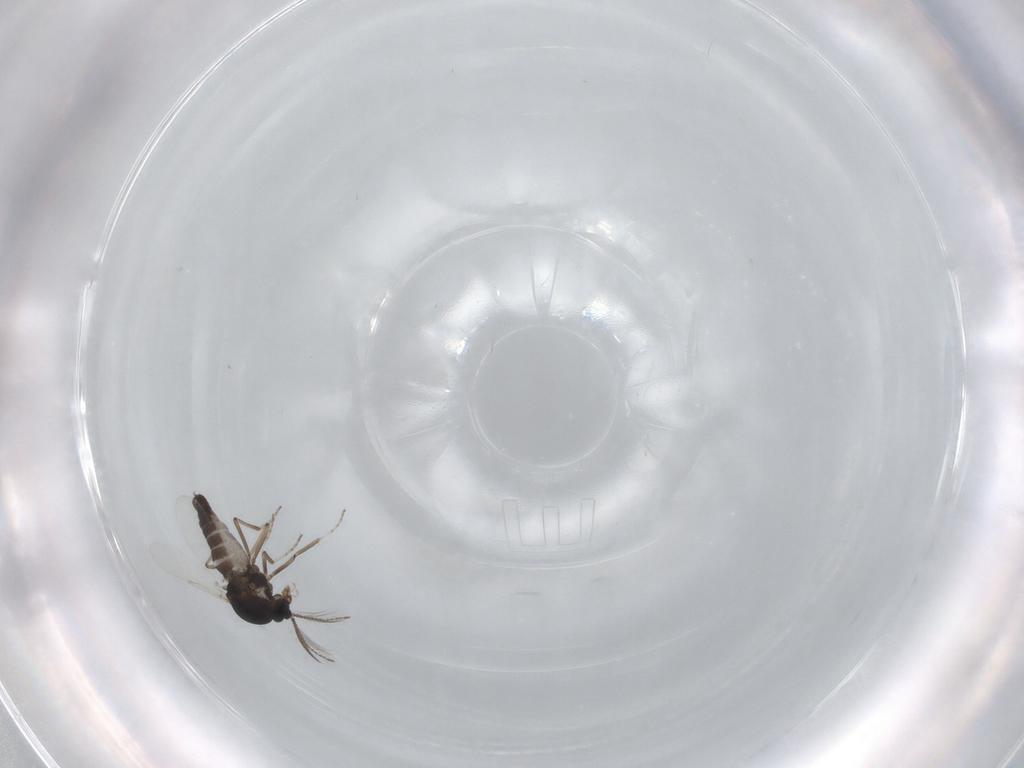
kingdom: Animalia
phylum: Arthropoda
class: Insecta
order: Diptera
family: Ceratopogonidae
